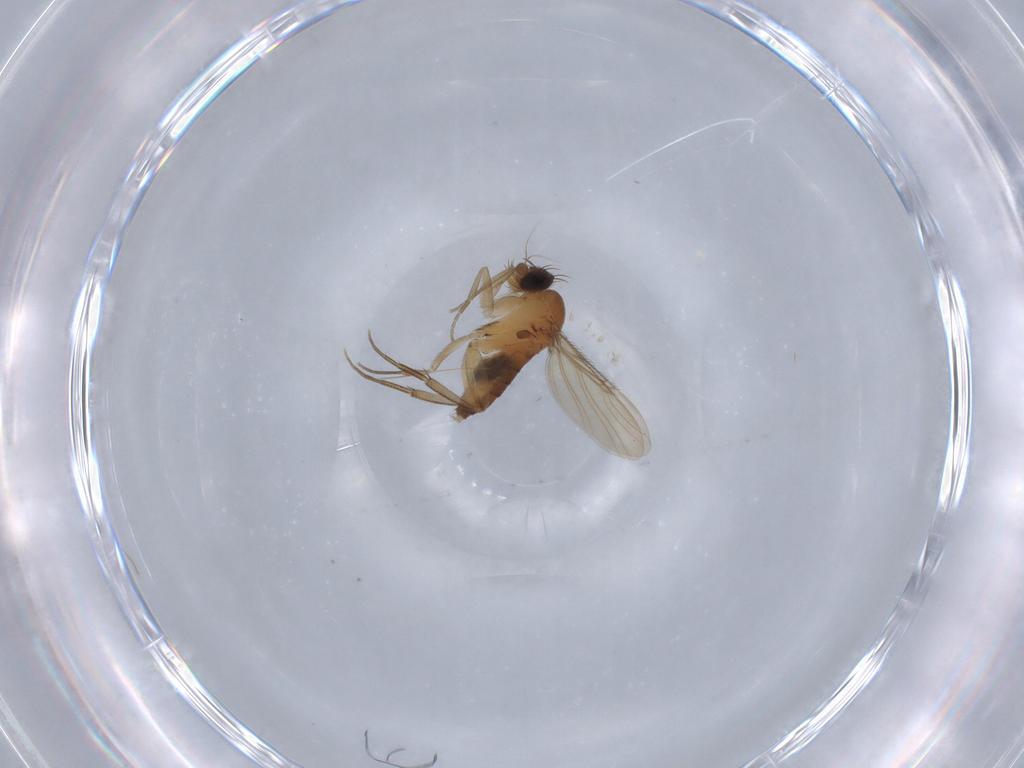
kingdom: Animalia
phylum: Arthropoda
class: Insecta
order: Diptera
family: Phoridae
